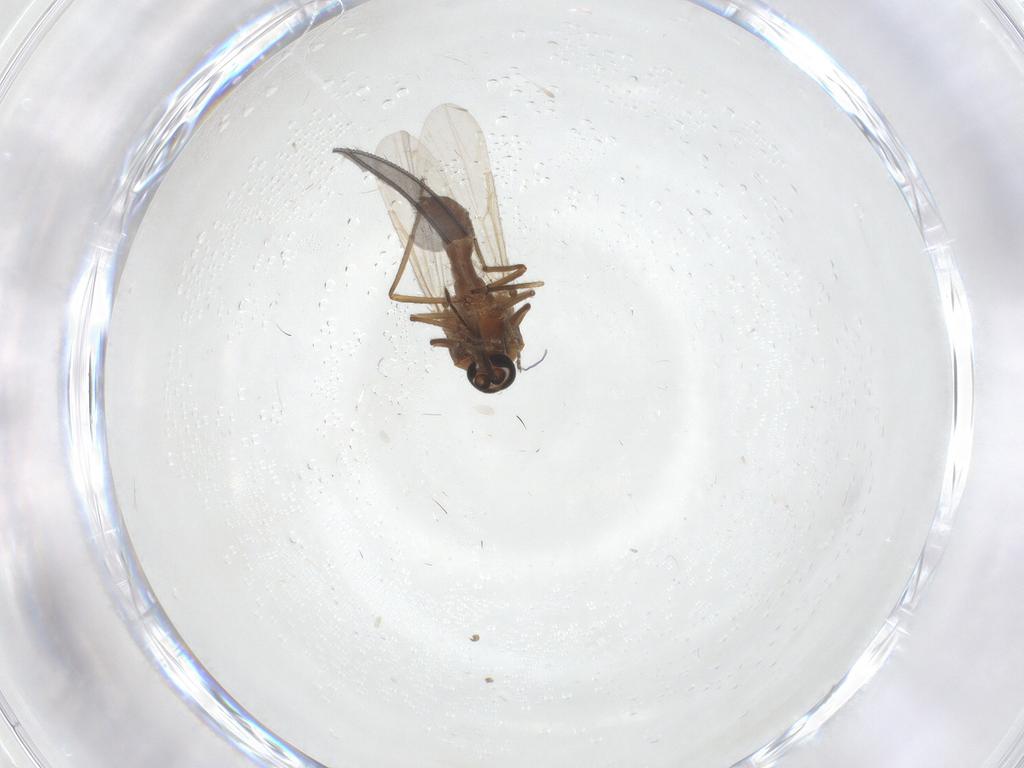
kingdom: Animalia
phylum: Arthropoda
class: Insecta
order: Diptera
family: Ceratopogonidae
